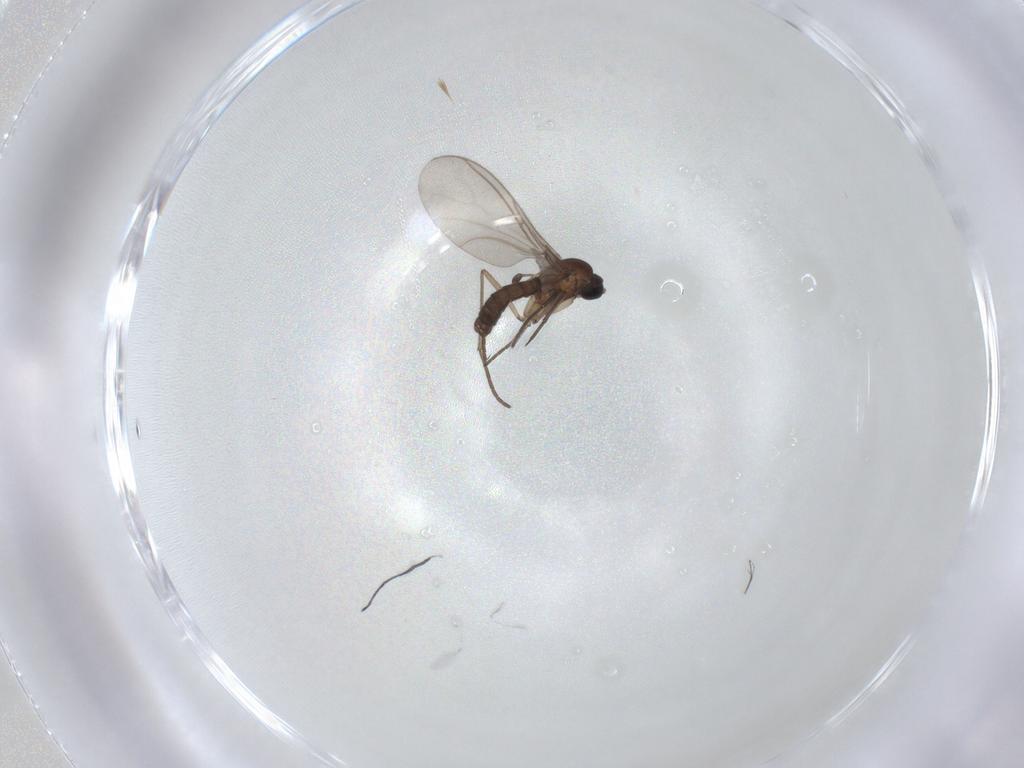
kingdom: Animalia
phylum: Arthropoda
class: Insecta
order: Diptera
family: Sciaridae
